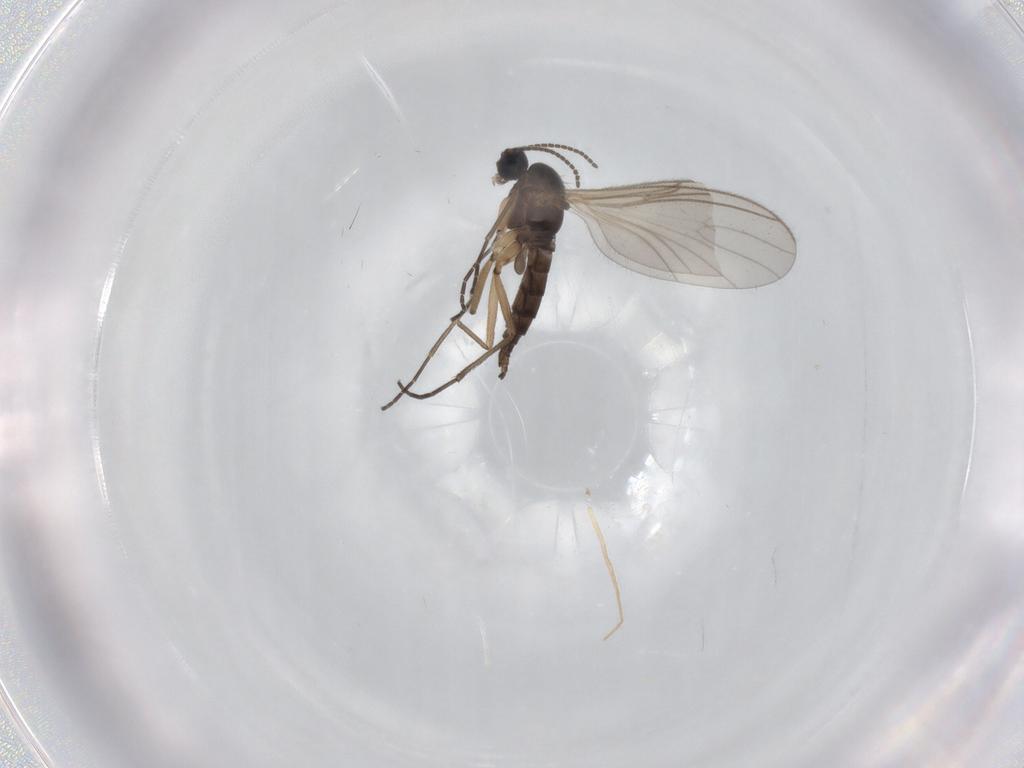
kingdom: Animalia
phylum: Arthropoda
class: Insecta
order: Diptera
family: Sciaridae
